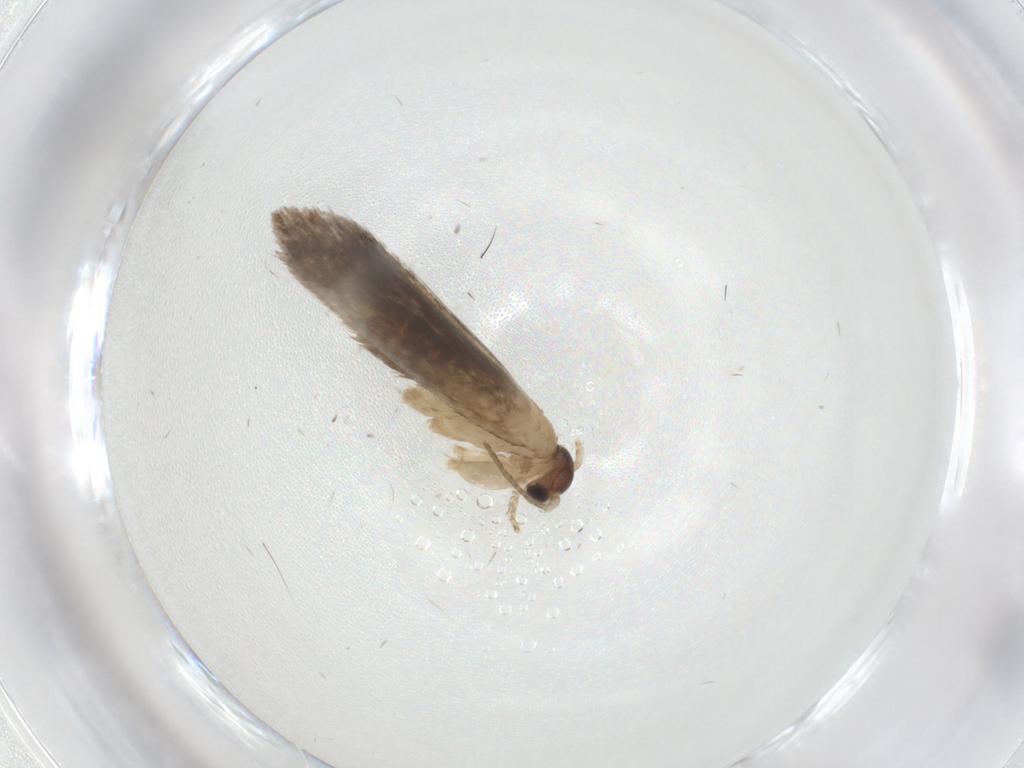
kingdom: Animalia
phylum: Arthropoda
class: Insecta
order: Lepidoptera
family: Dryadaulidae
